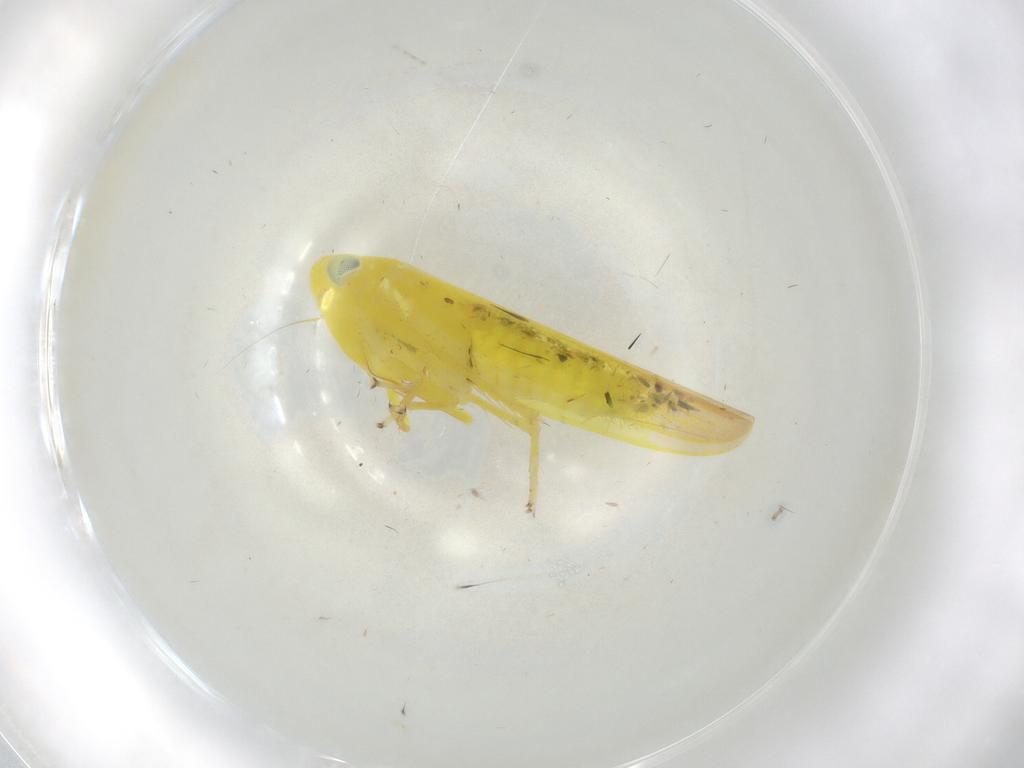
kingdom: Animalia
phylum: Arthropoda
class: Insecta
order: Hemiptera
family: Cicadellidae
